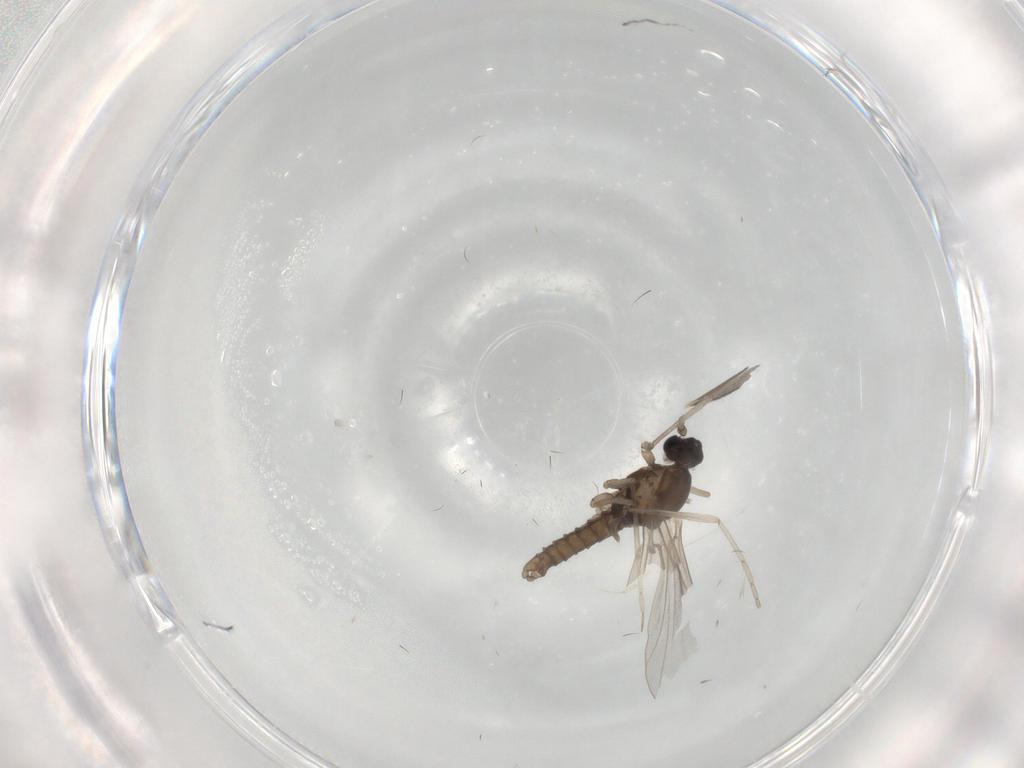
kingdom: Animalia
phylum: Arthropoda
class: Insecta
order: Diptera
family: Cecidomyiidae
